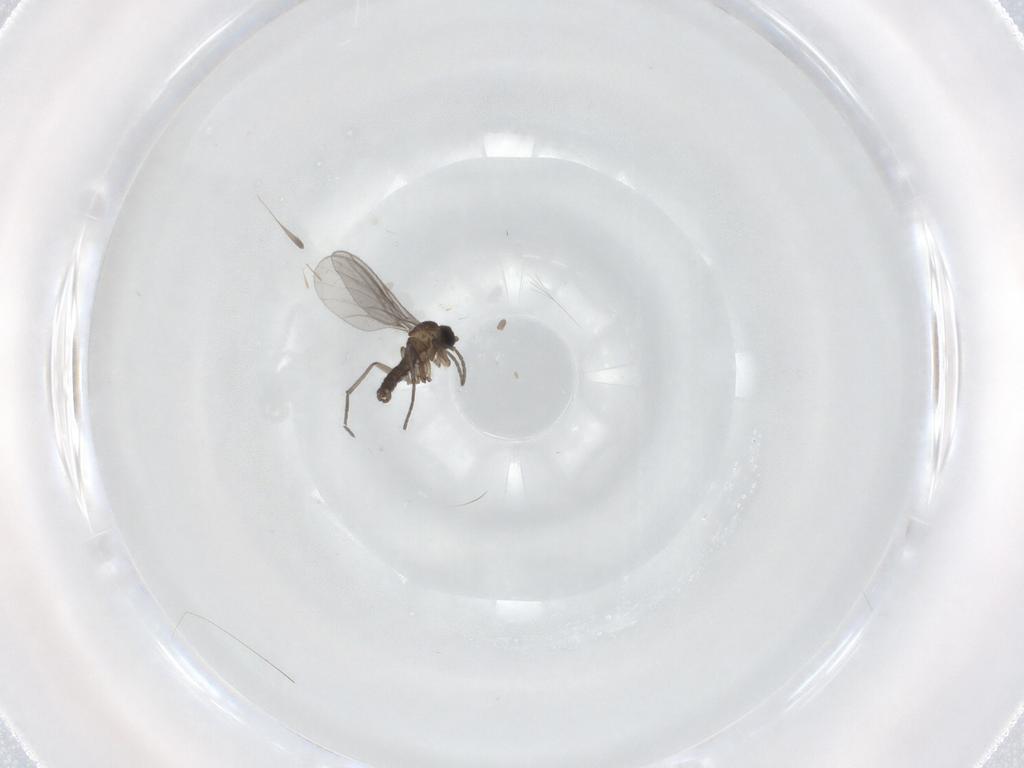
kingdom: Animalia
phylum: Arthropoda
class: Insecta
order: Diptera
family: Sciaridae
